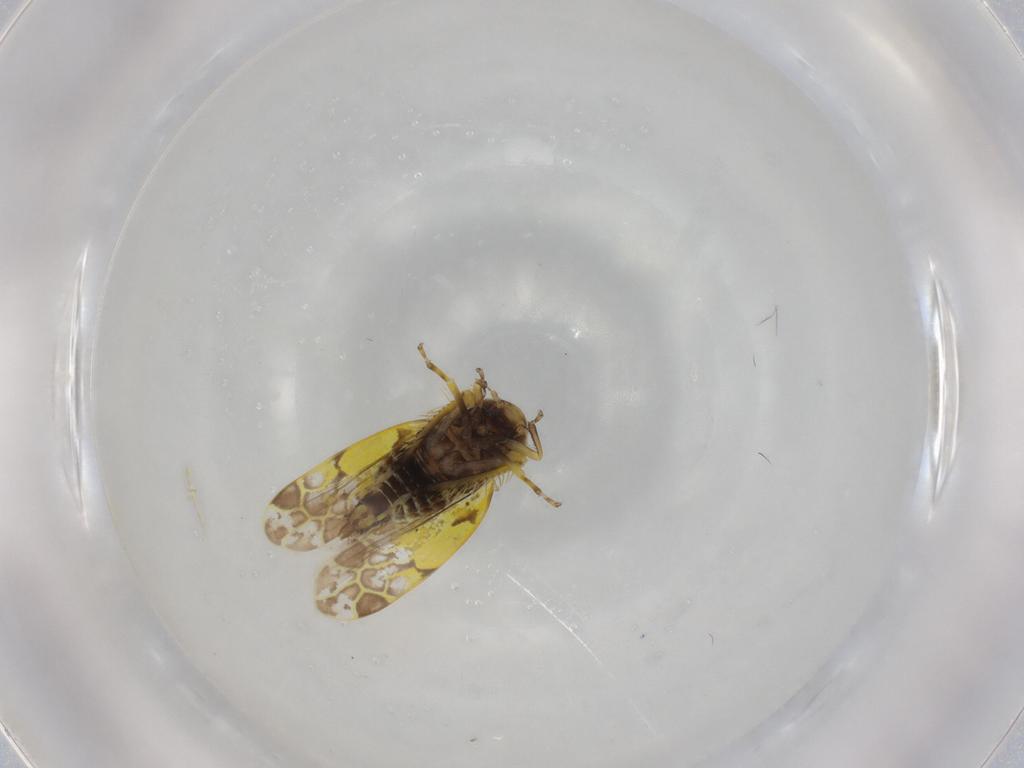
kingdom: Animalia
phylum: Arthropoda
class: Insecta
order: Hemiptera
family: Cicadellidae
